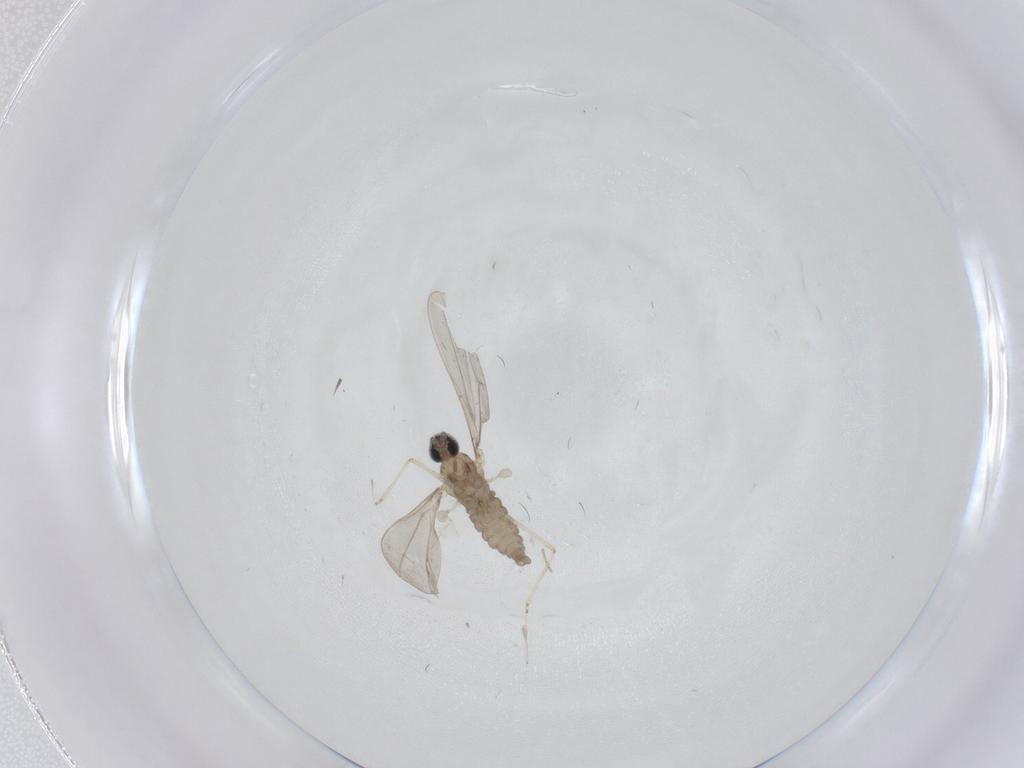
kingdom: Animalia
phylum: Arthropoda
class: Insecta
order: Diptera
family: Cecidomyiidae
